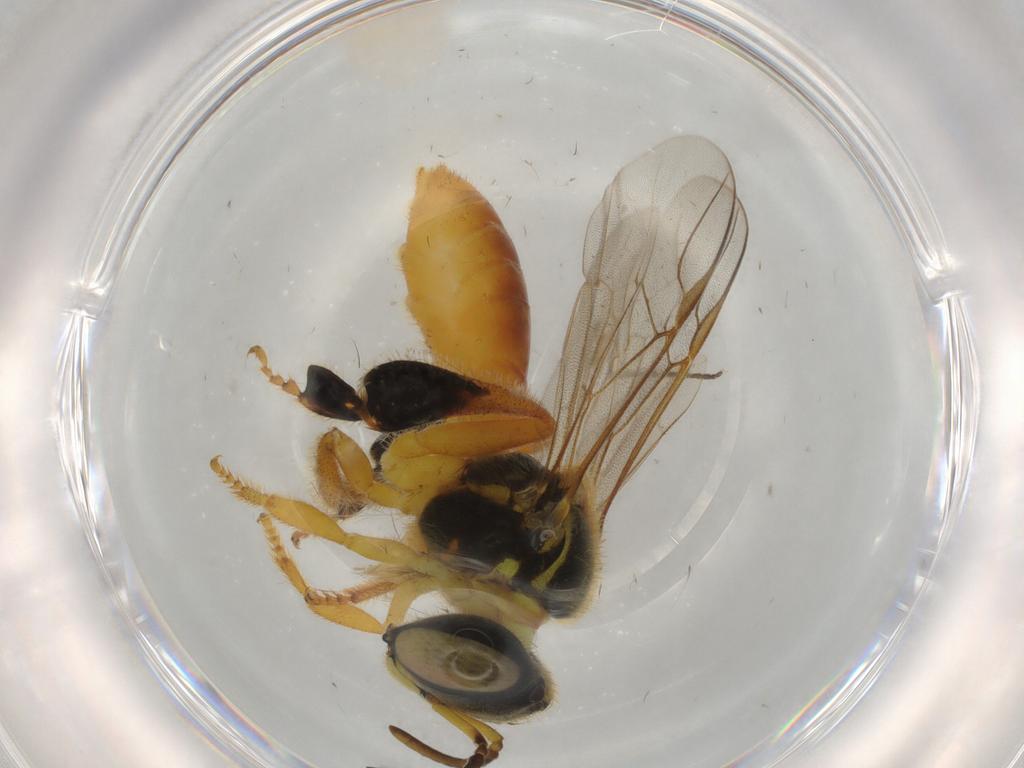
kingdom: Animalia
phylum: Arthropoda
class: Insecta
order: Hymenoptera
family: Apidae
